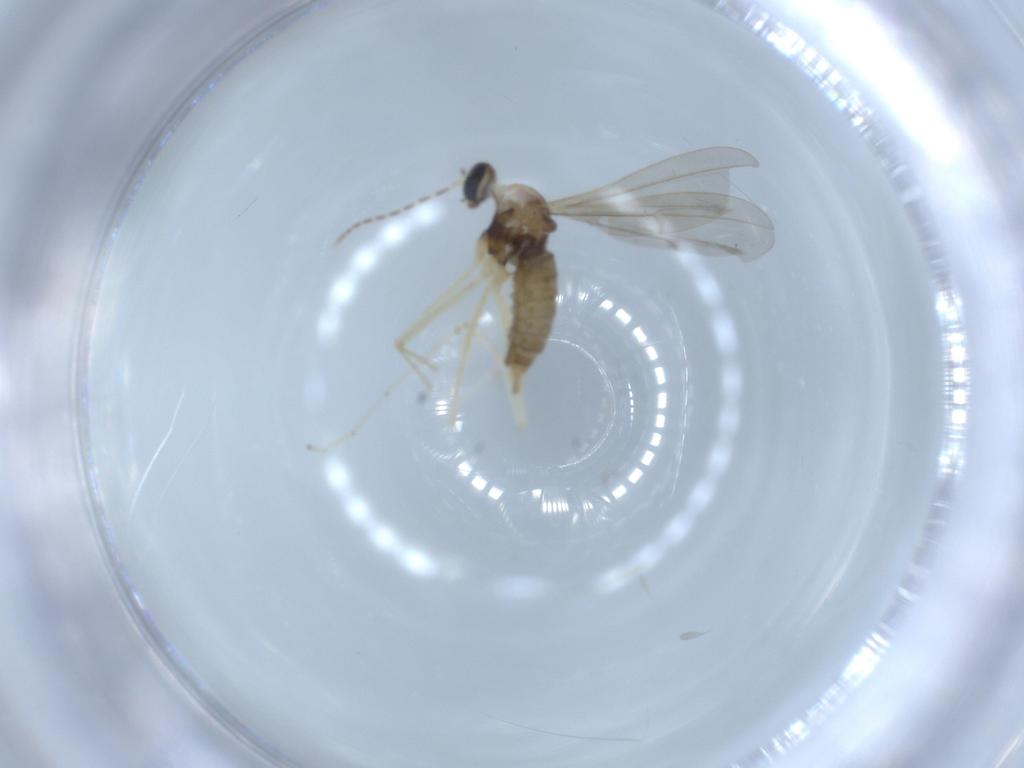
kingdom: Animalia
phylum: Arthropoda
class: Insecta
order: Diptera
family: Cecidomyiidae
